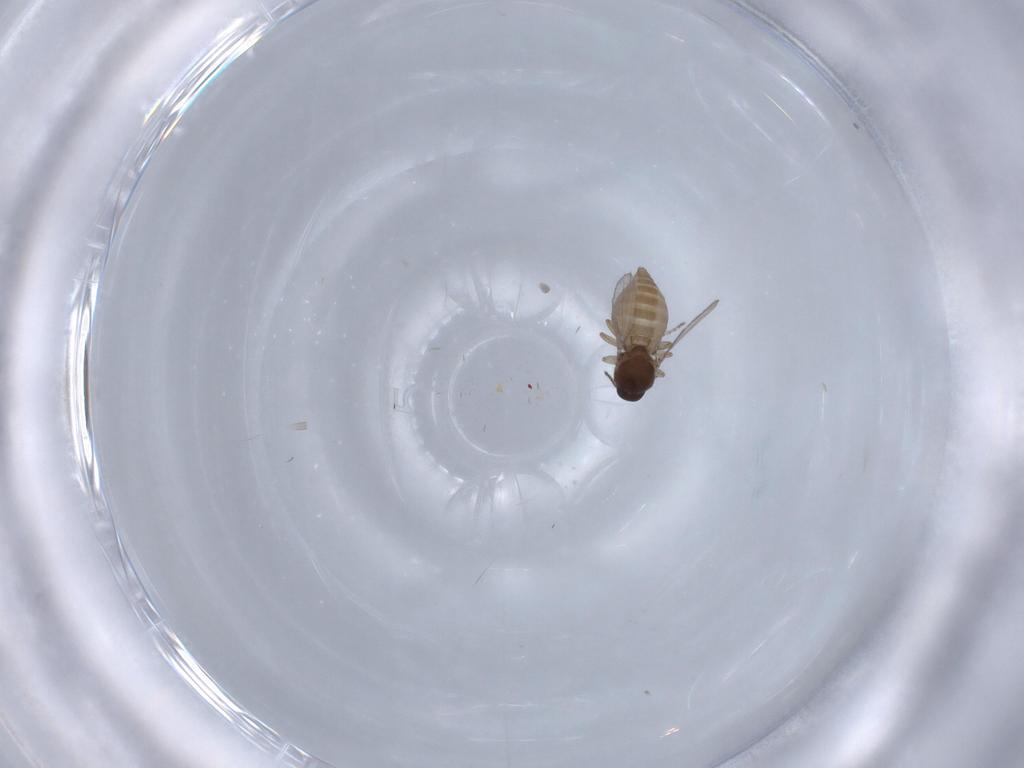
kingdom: Animalia
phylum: Arthropoda
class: Insecta
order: Diptera
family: Ceratopogonidae
